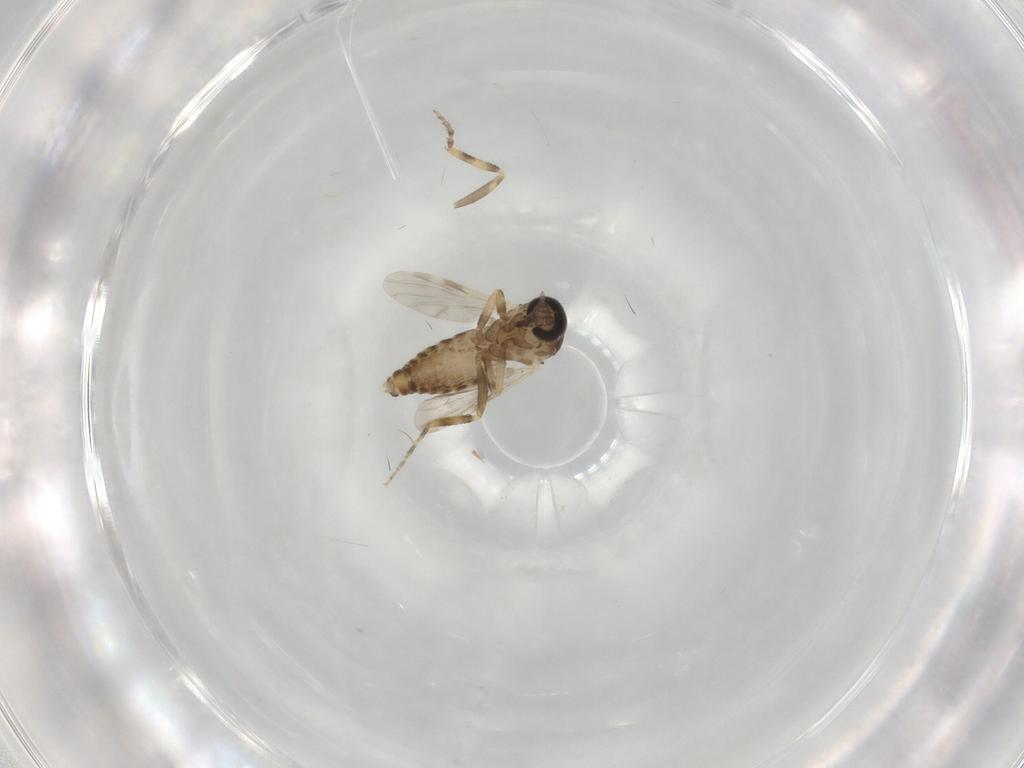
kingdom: Animalia
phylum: Arthropoda
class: Insecta
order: Diptera
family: Ceratopogonidae
